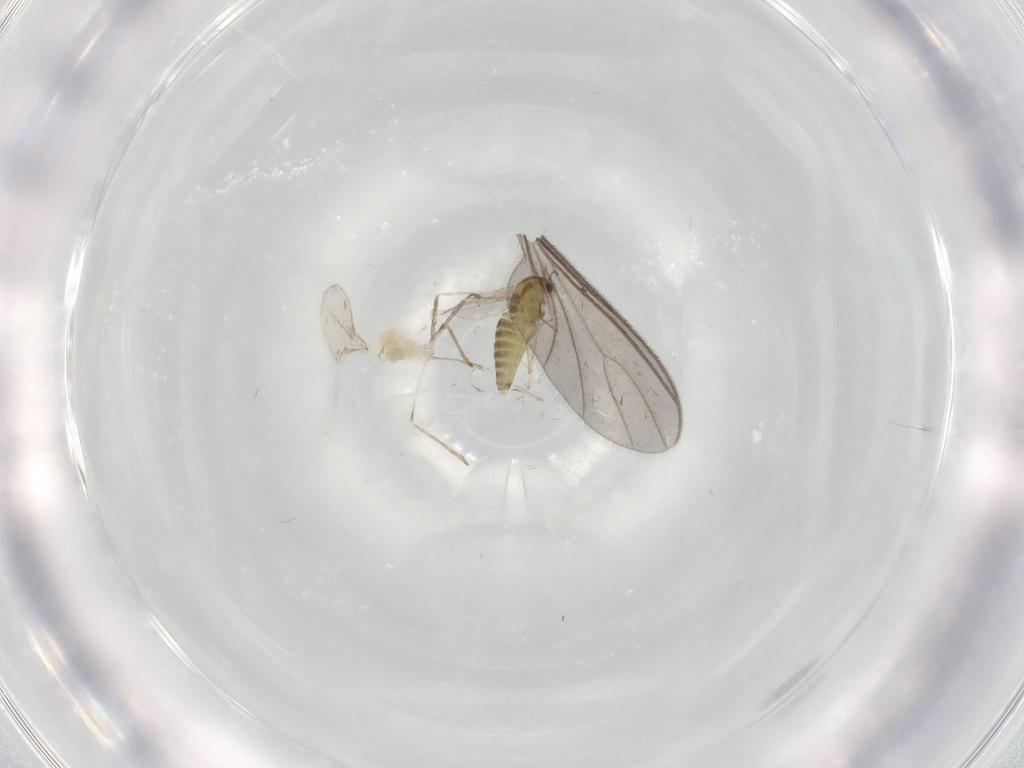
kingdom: Animalia
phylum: Arthropoda
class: Insecta
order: Diptera
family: Chironomidae
